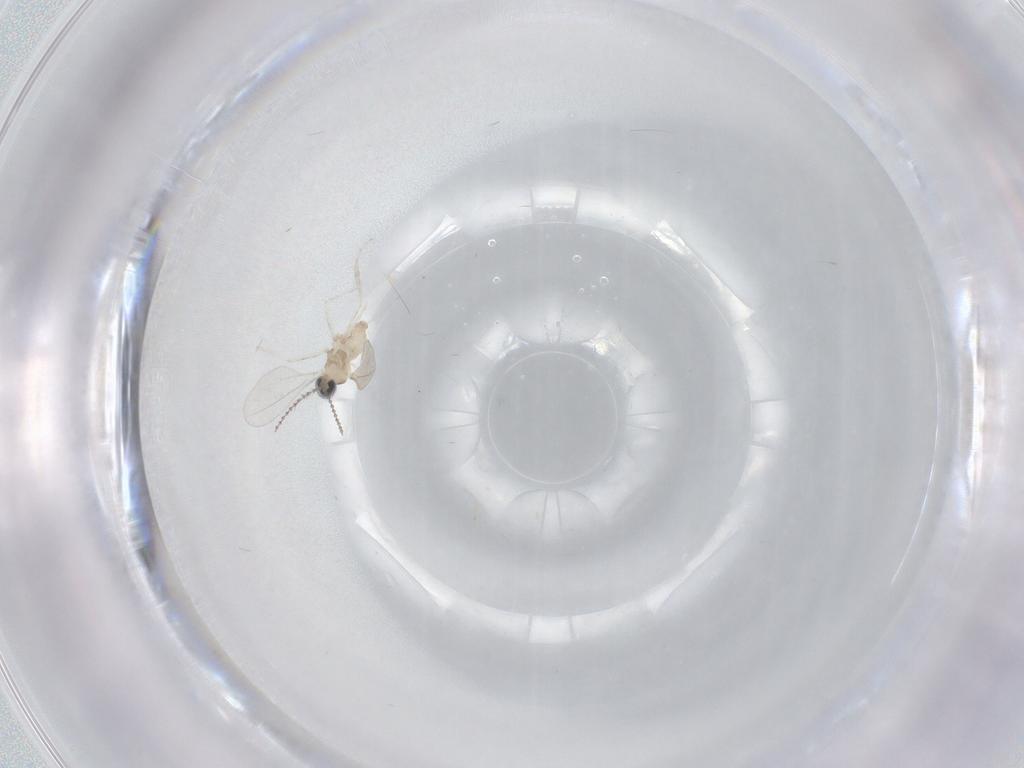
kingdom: Animalia
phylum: Arthropoda
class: Insecta
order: Diptera
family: Cecidomyiidae
